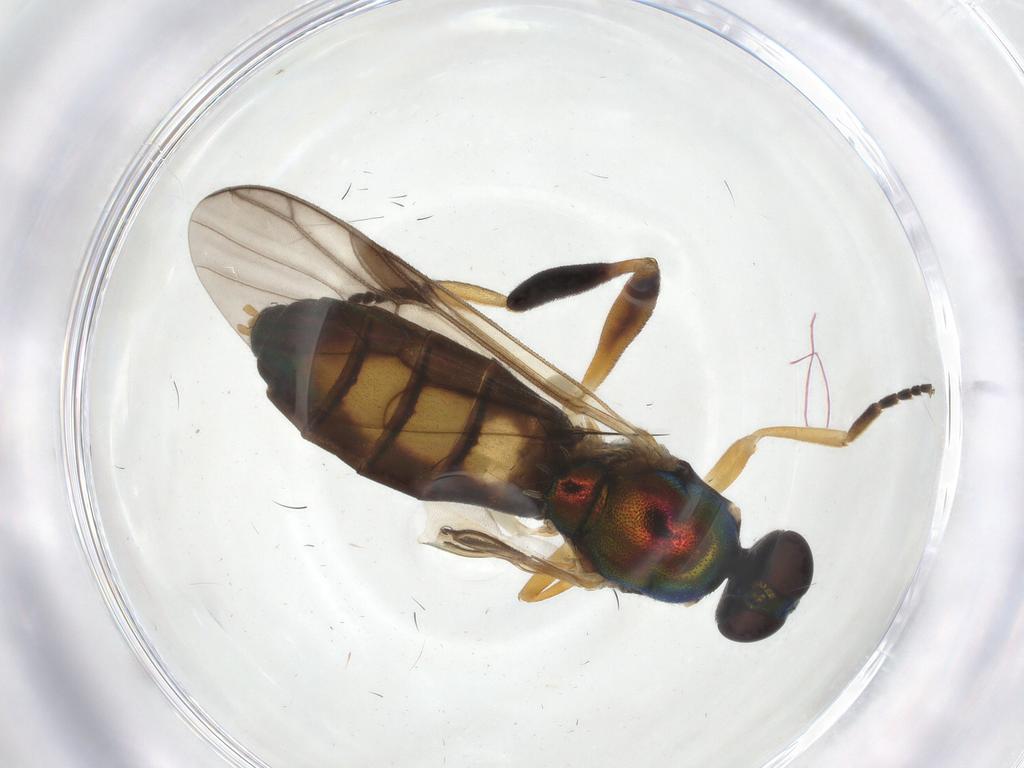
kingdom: Animalia
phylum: Arthropoda
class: Insecta
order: Diptera
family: Stratiomyidae
